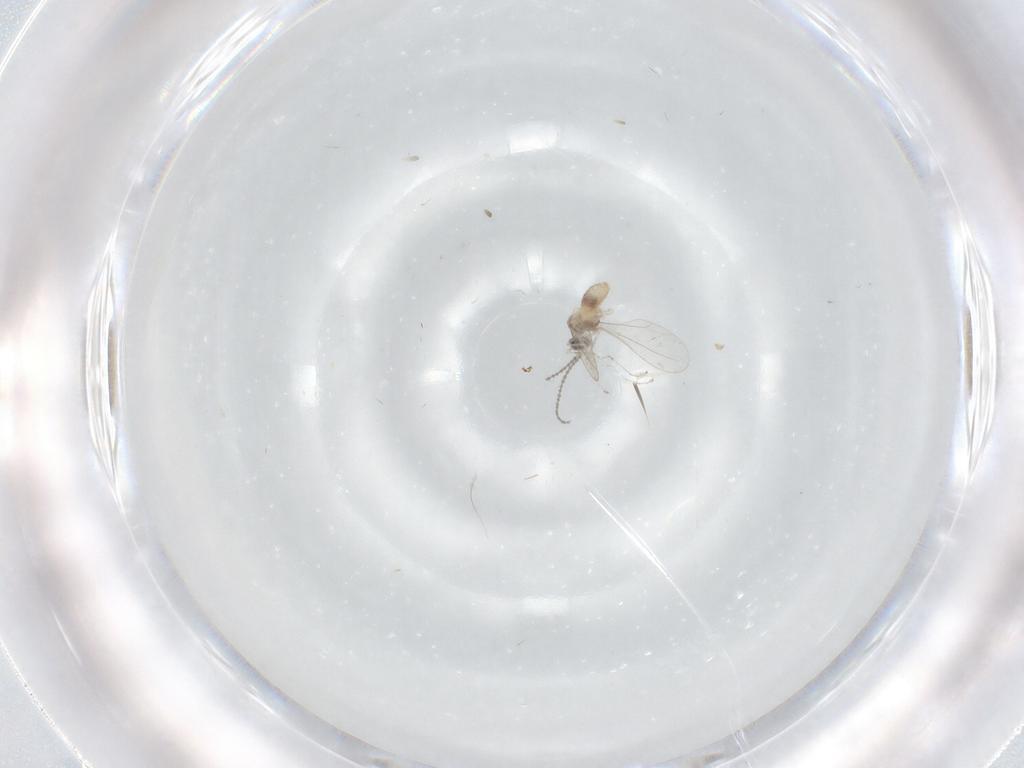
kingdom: Animalia
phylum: Arthropoda
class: Insecta
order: Diptera
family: Cecidomyiidae
